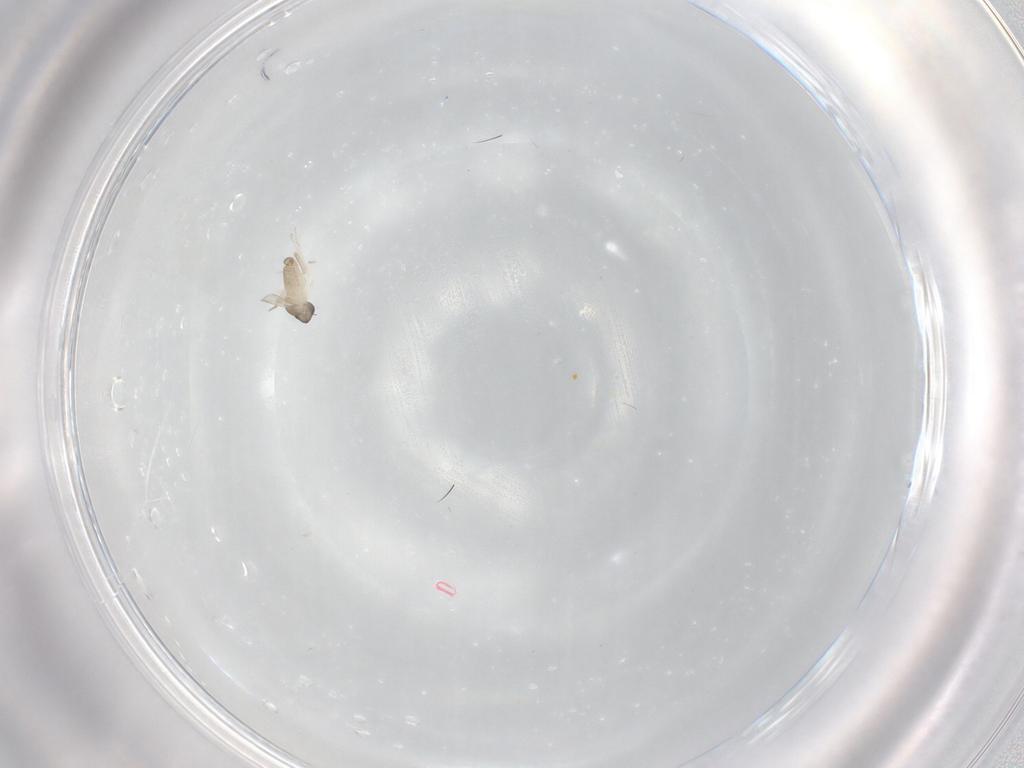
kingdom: Animalia
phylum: Arthropoda
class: Insecta
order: Diptera
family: Cecidomyiidae
